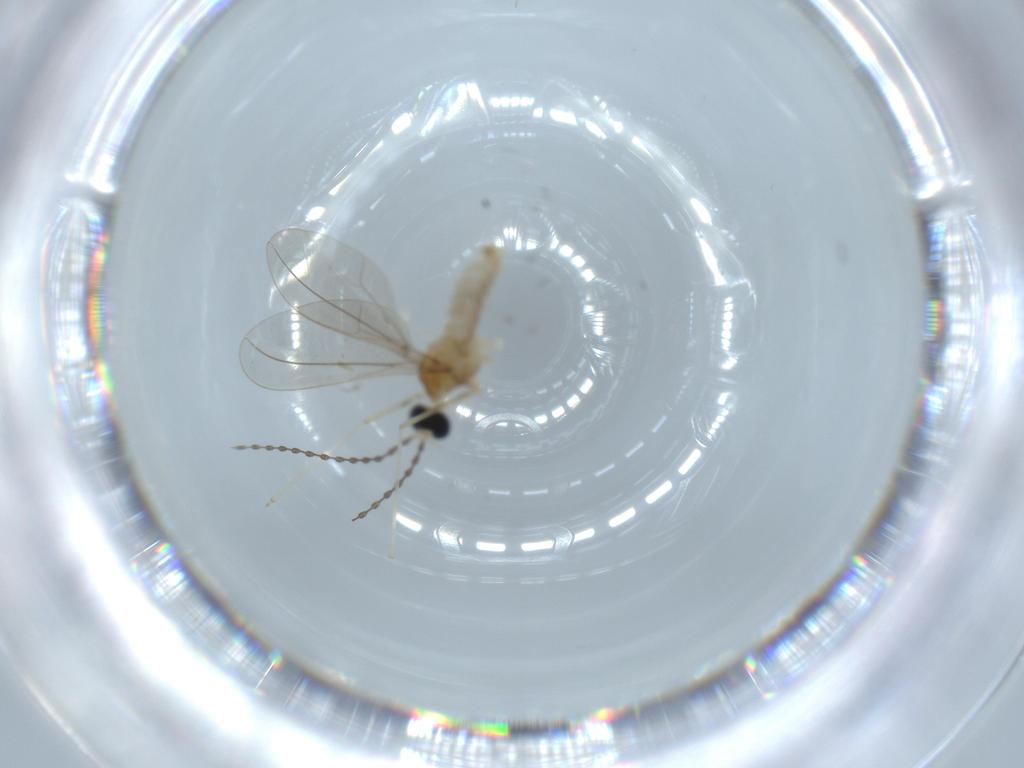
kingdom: Animalia
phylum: Arthropoda
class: Insecta
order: Diptera
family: Cecidomyiidae
